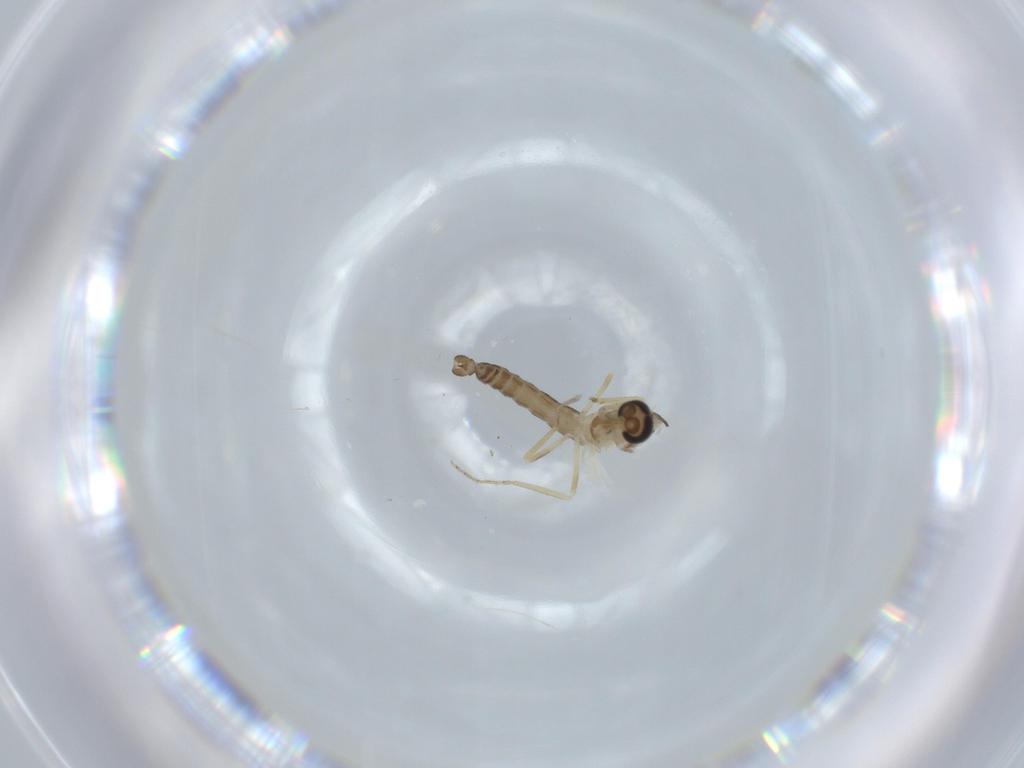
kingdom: Animalia
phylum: Arthropoda
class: Insecta
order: Diptera
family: Ceratopogonidae
